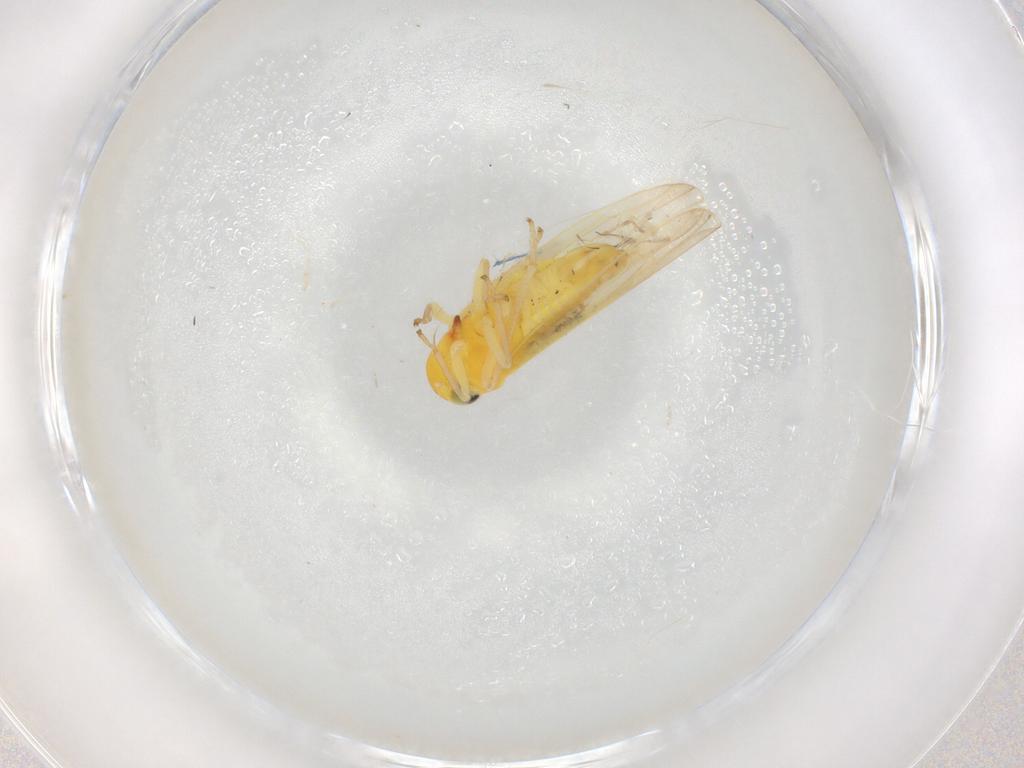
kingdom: Animalia
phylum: Arthropoda
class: Insecta
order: Hemiptera
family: Cicadellidae
